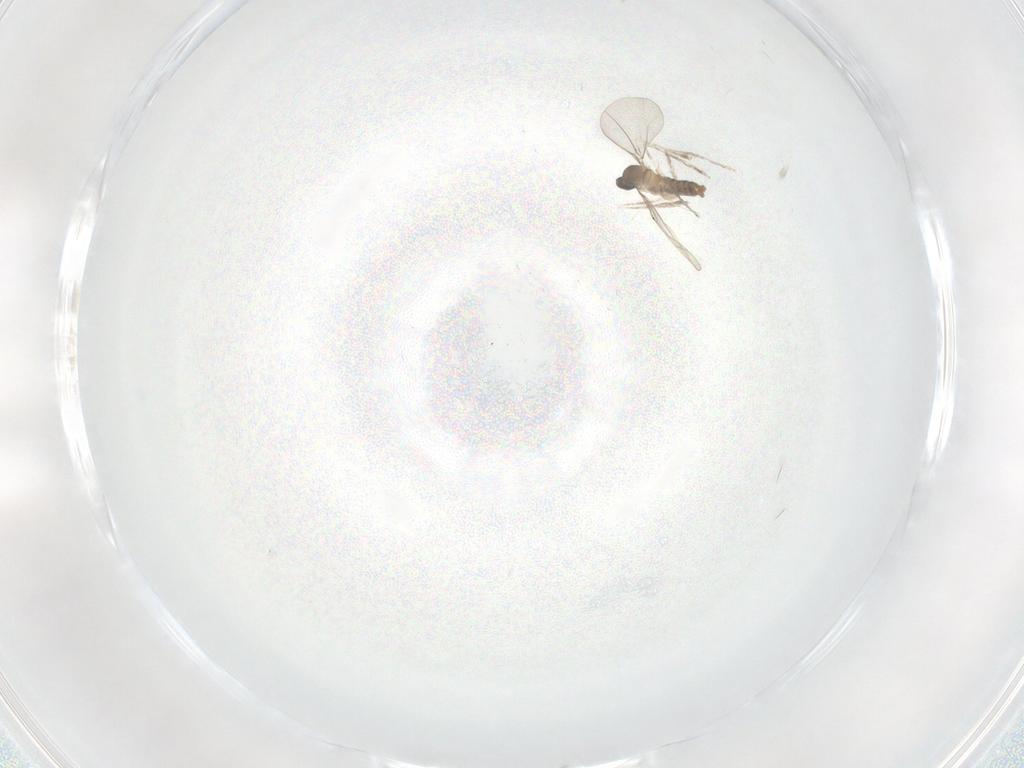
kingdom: Animalia
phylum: Arthropoda
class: Insecta
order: Diptera
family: Cecidomyiidae
